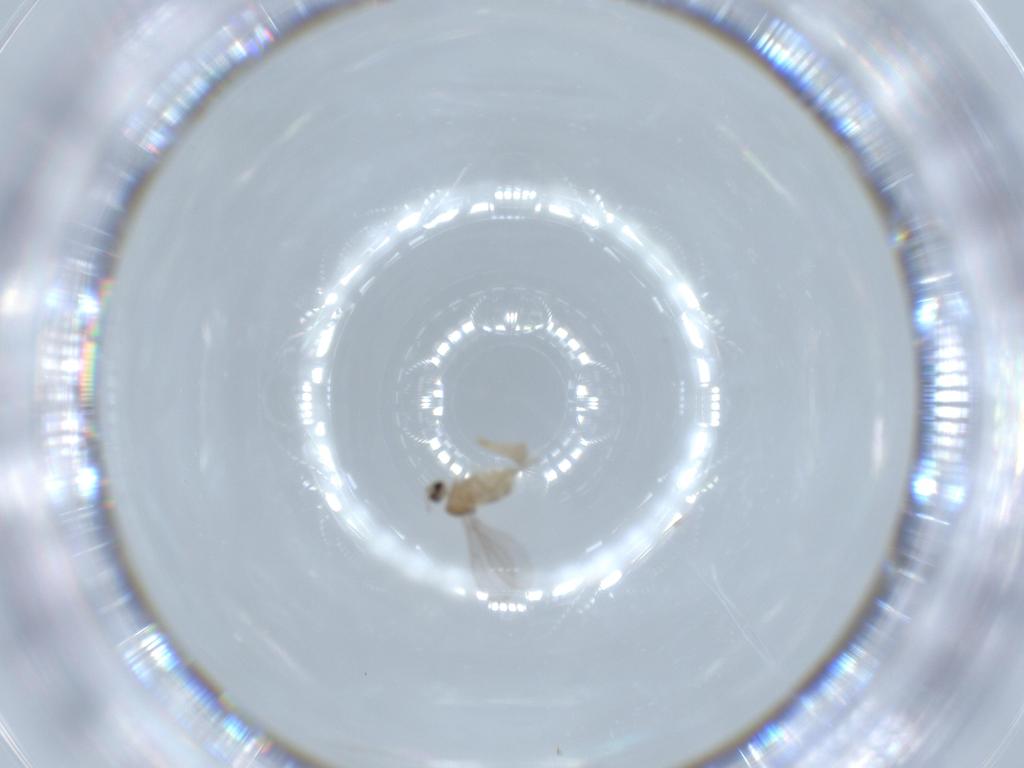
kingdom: Animalia
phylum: Arthropoda
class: Insecta
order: Diptera
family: Cecidomyiidae
